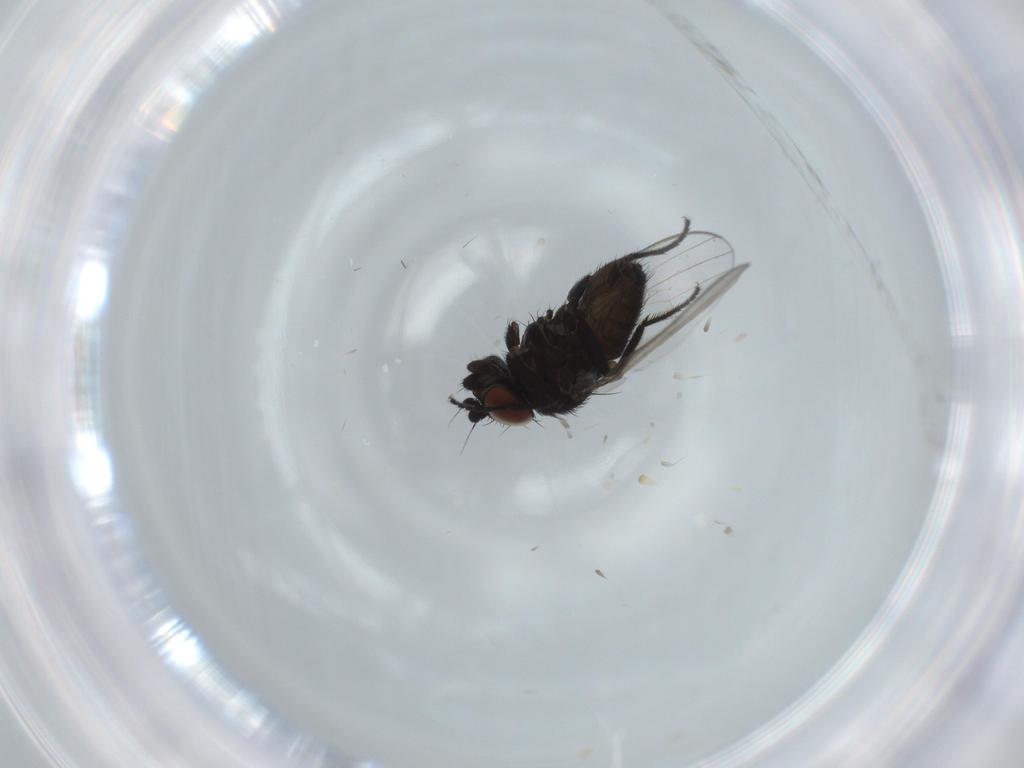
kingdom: Animalia
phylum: Arthropoda
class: Insecta
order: Diptera
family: Milichiidae
